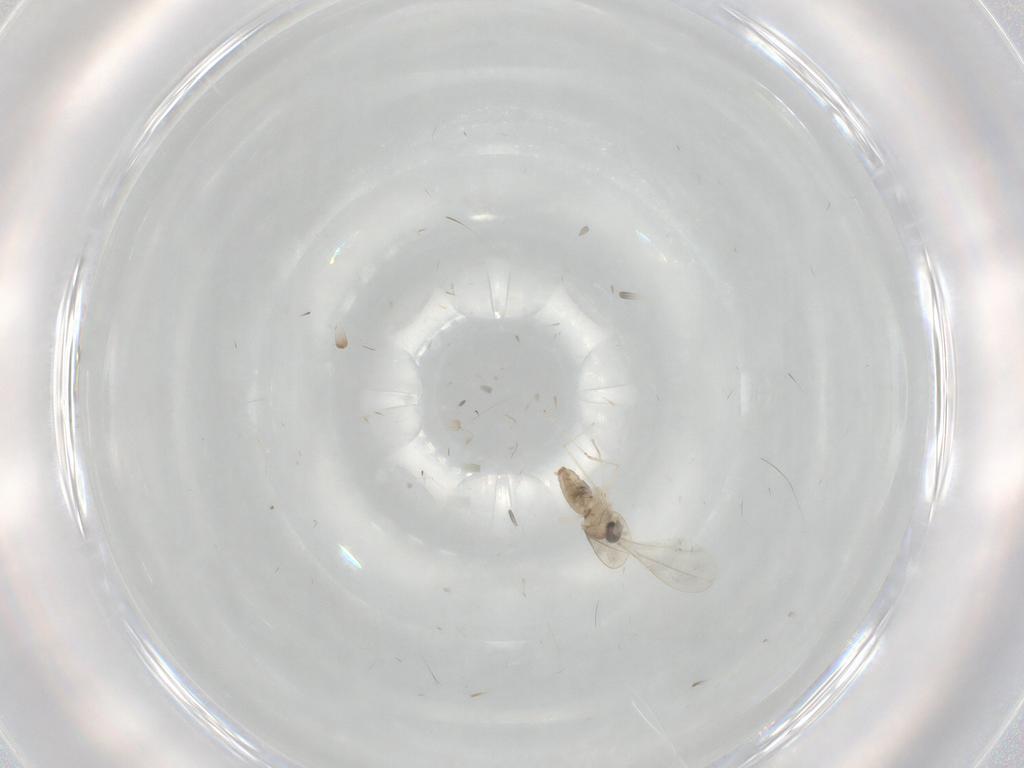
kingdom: Animalia
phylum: Arthropoda
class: Insecta
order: Diptera
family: Cecidomyiidae
